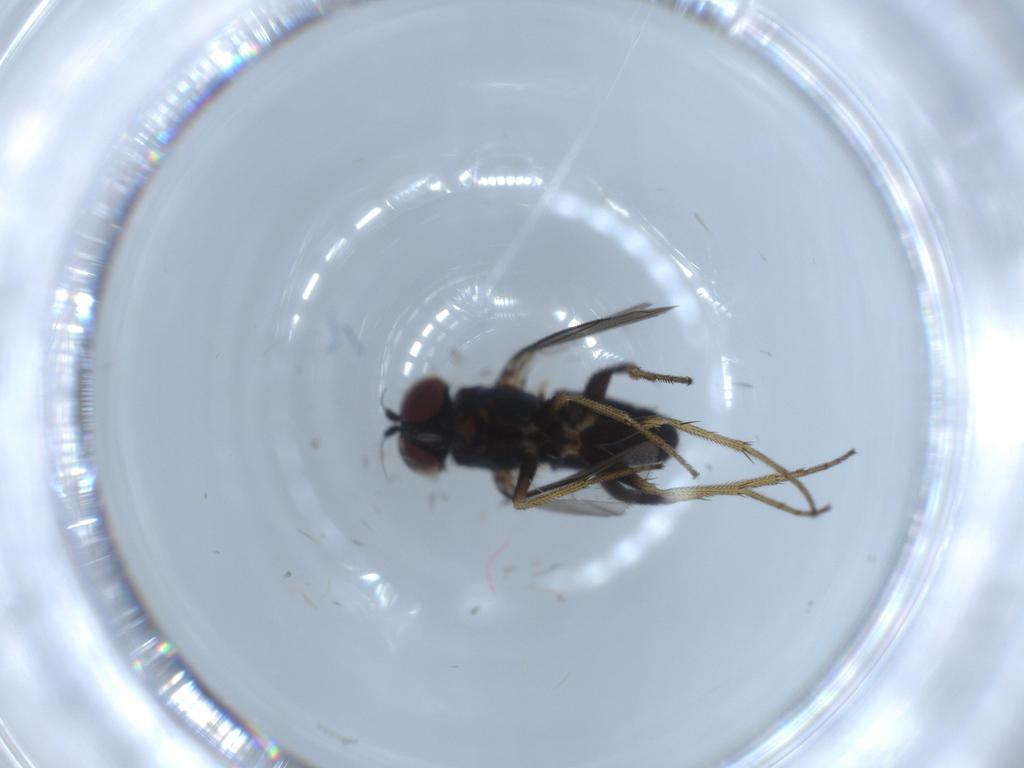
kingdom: Animalia
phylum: Arthropoda
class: Insecta
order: Diptera
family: Dolichopodidae
